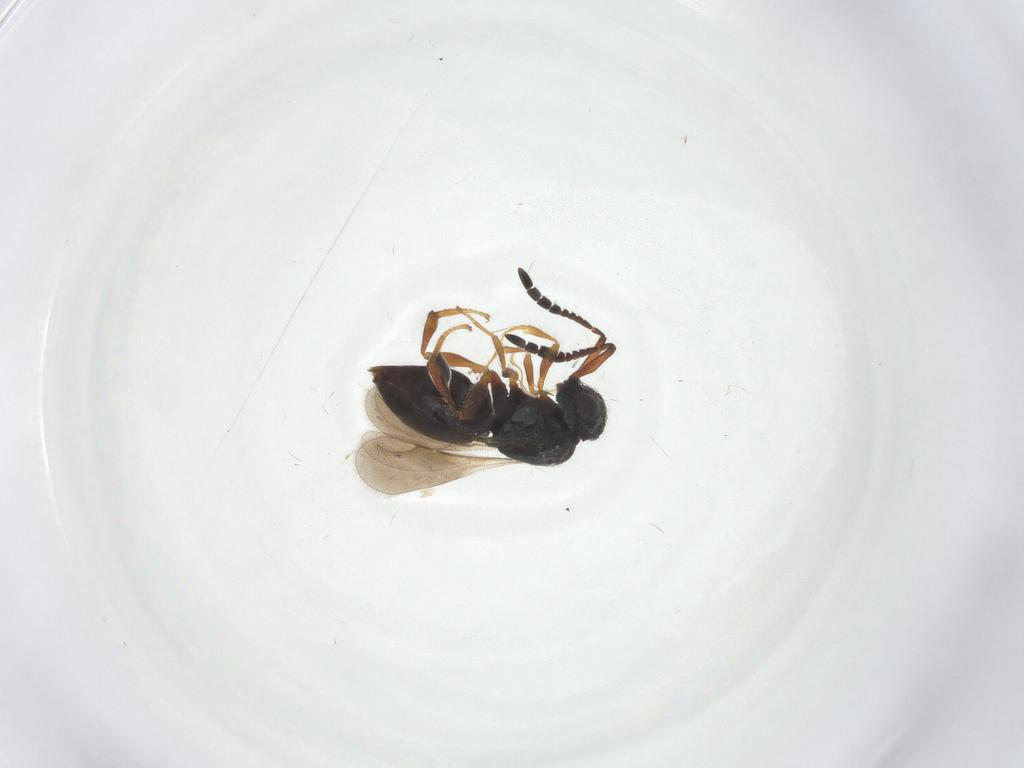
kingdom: Animalia
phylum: Arthropoda
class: Insecta
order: Hymenoptera
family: Formicidae
